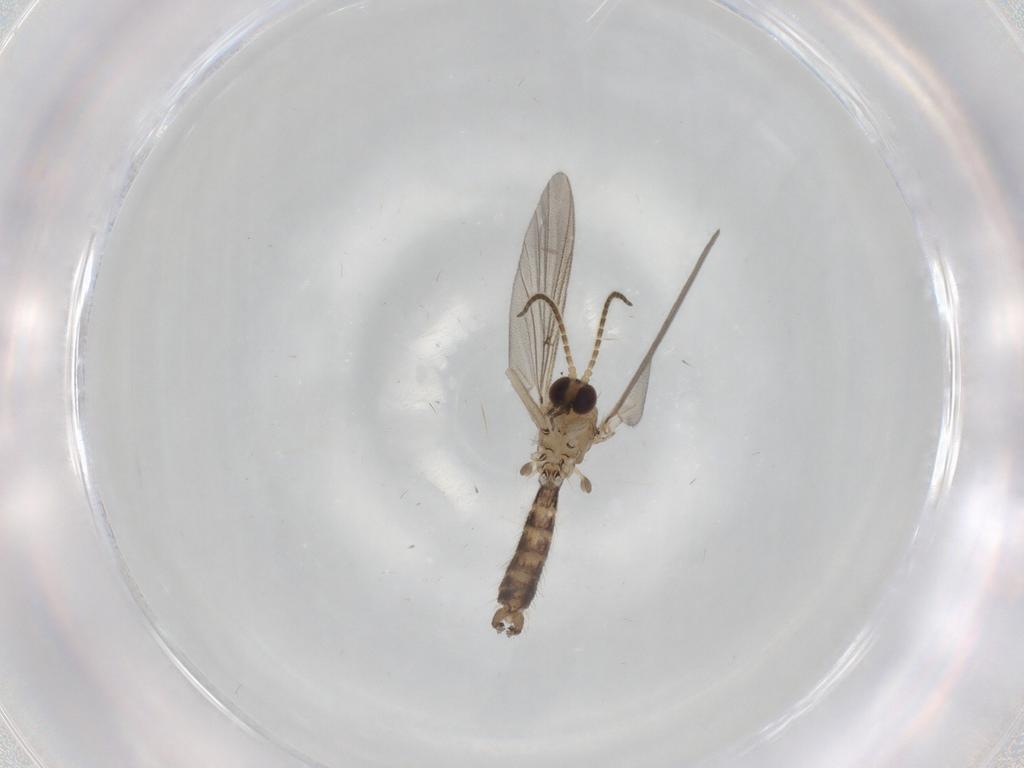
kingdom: Animalia
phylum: Arthropoda
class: Insecta
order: Diptera
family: Mycetophilidae
